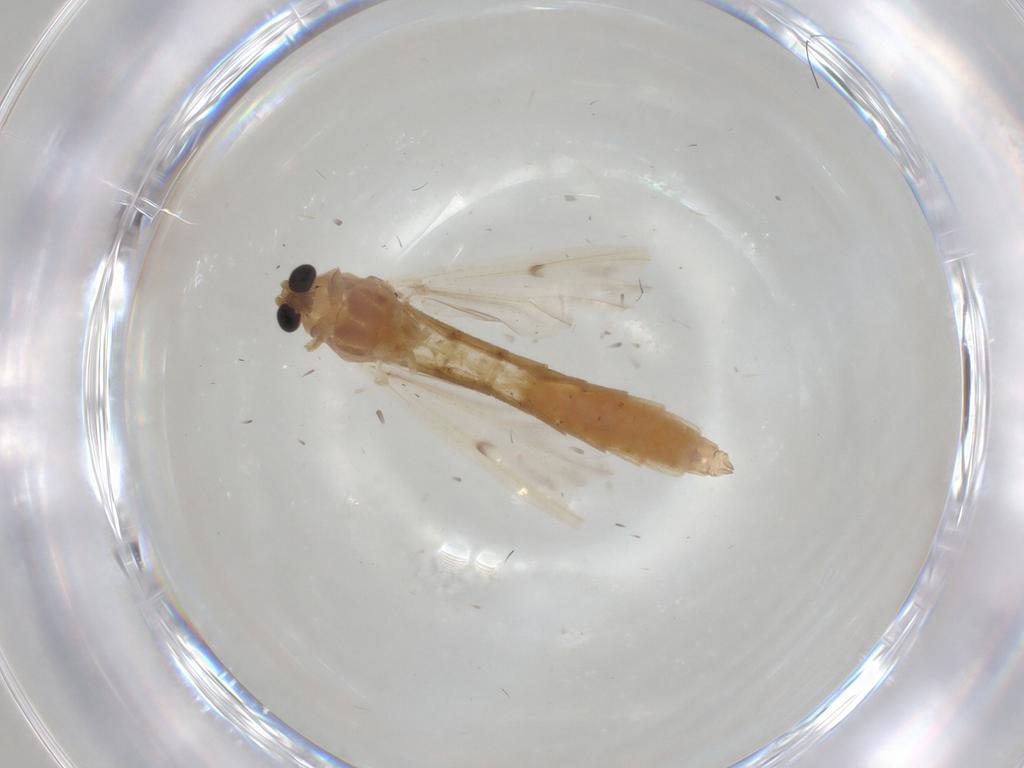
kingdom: Animalia
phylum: Arthropoda
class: Insecta
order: Diptera
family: Chironomidae
